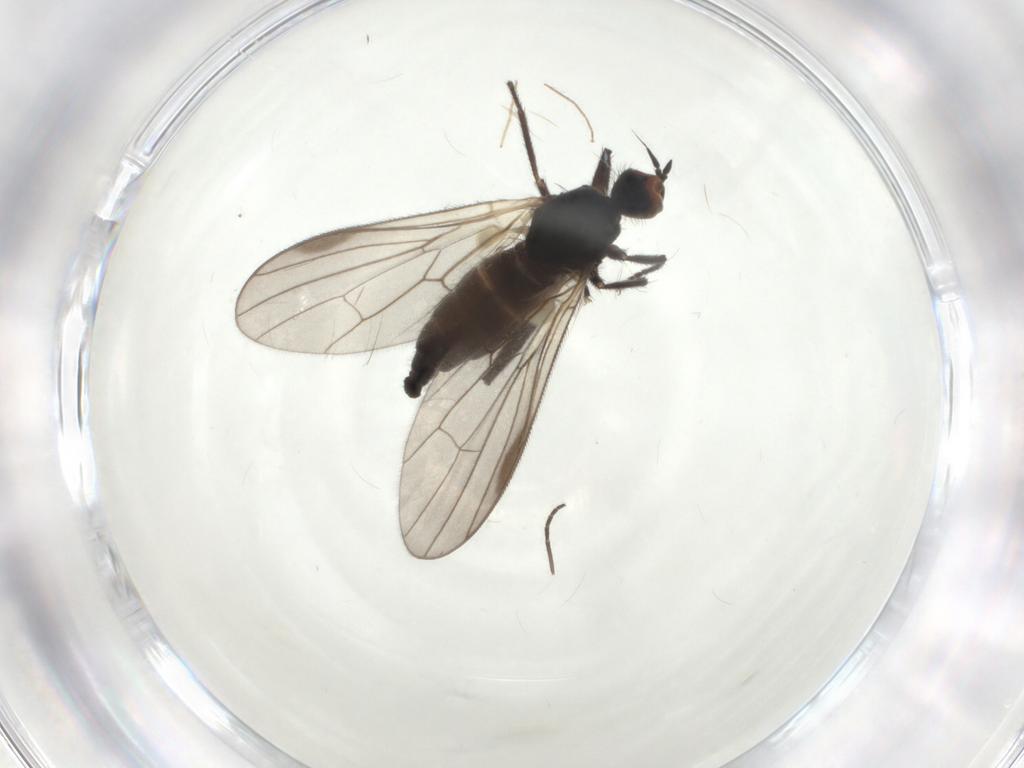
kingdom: Animalia
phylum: Arthropoda
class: Insecta
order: Diptera
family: Hybotidae
